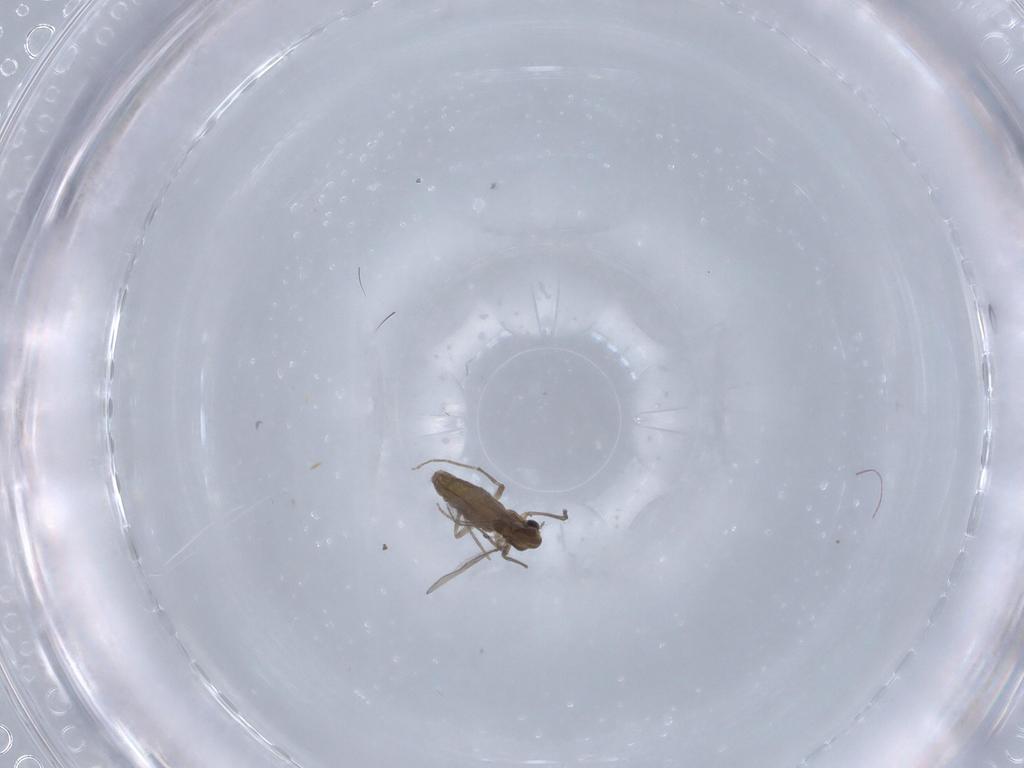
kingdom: Animalia
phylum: Arthropoda
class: Insecta
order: Diptera
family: Chironomidae
